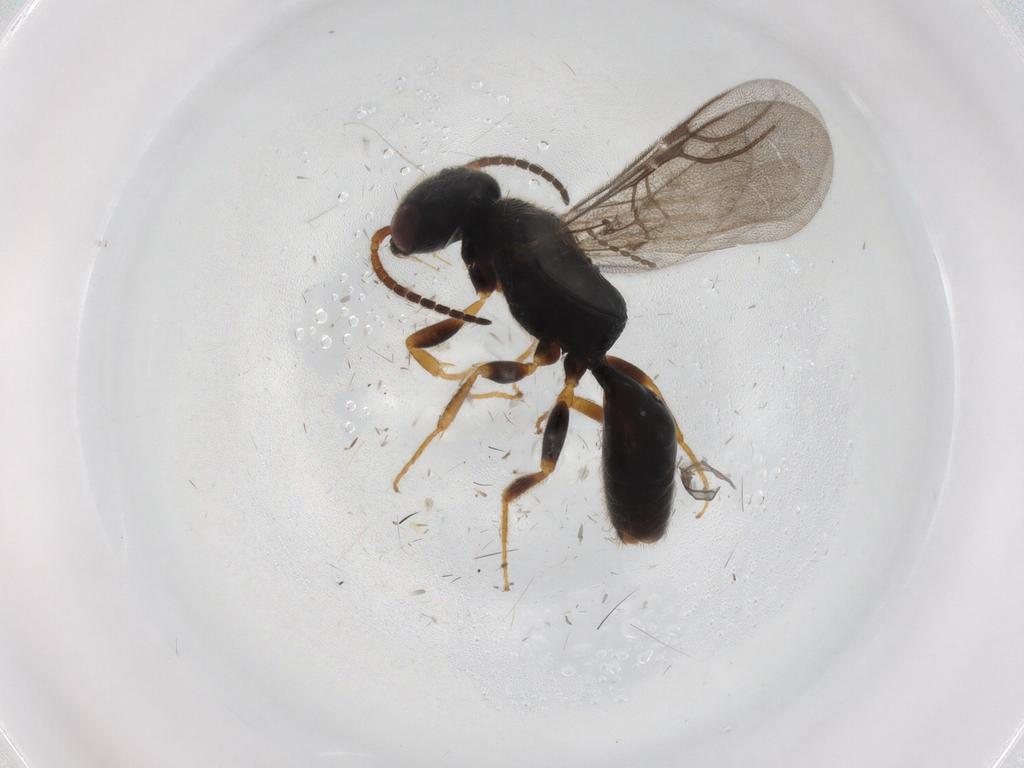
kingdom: Animalia
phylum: Arthropoda
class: Insecta
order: Hymenoptera
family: Bethylidae
